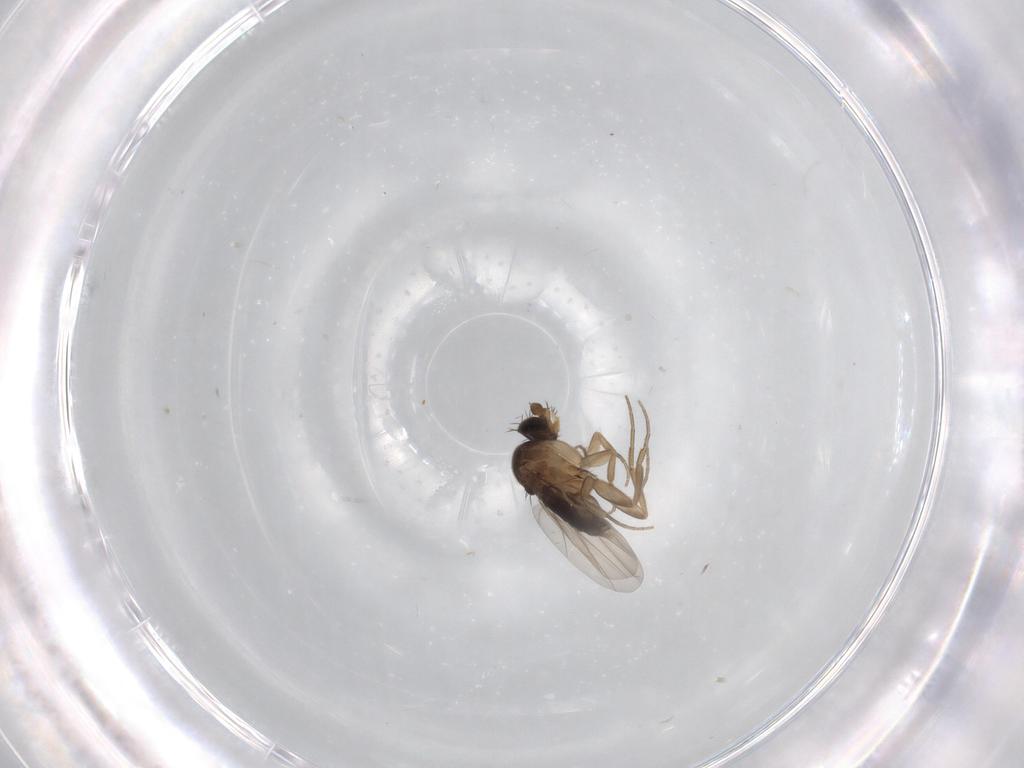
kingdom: Animalia
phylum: Arthropoda
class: Insecta
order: Diptera
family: Phoridae
